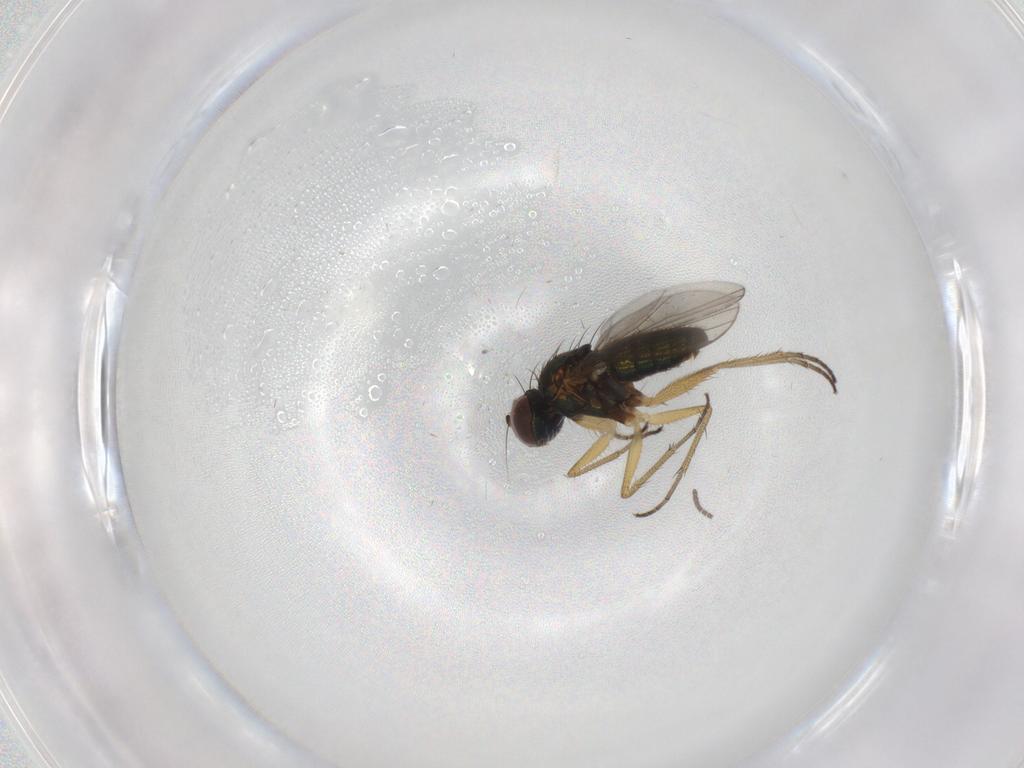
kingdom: Animalia
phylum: Arthropoda
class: Insecta
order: Diptera
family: Sciaridae
